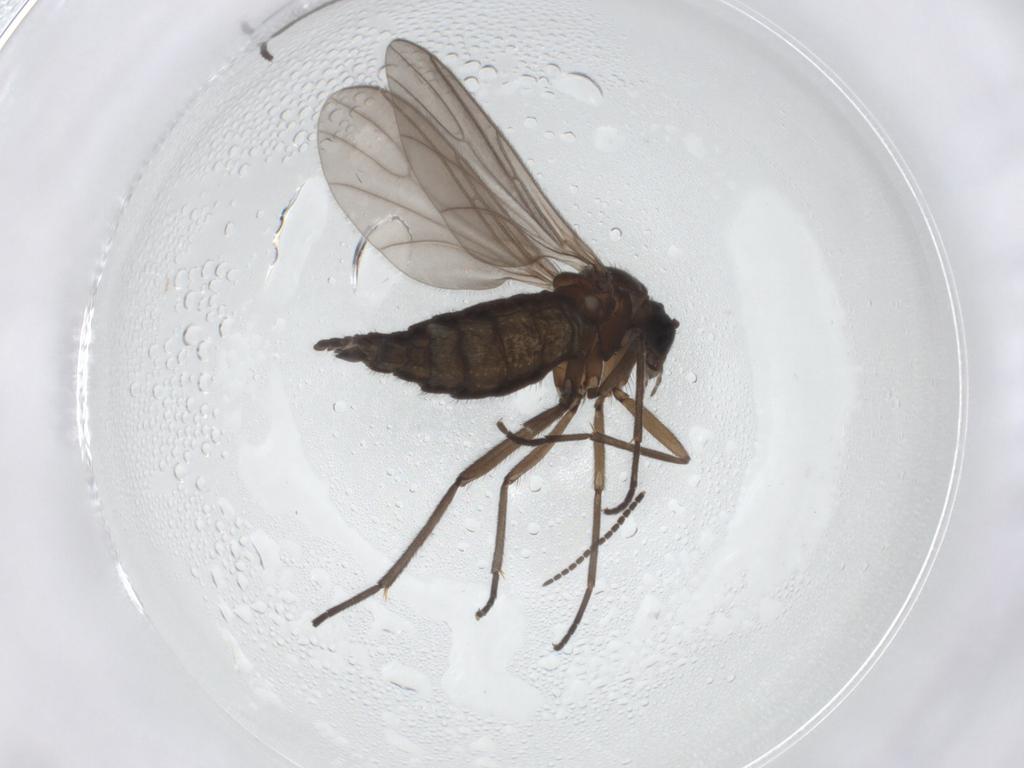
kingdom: Animalia
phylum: Arthropoda
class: Insecta
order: Diptera
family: Sciaridae
